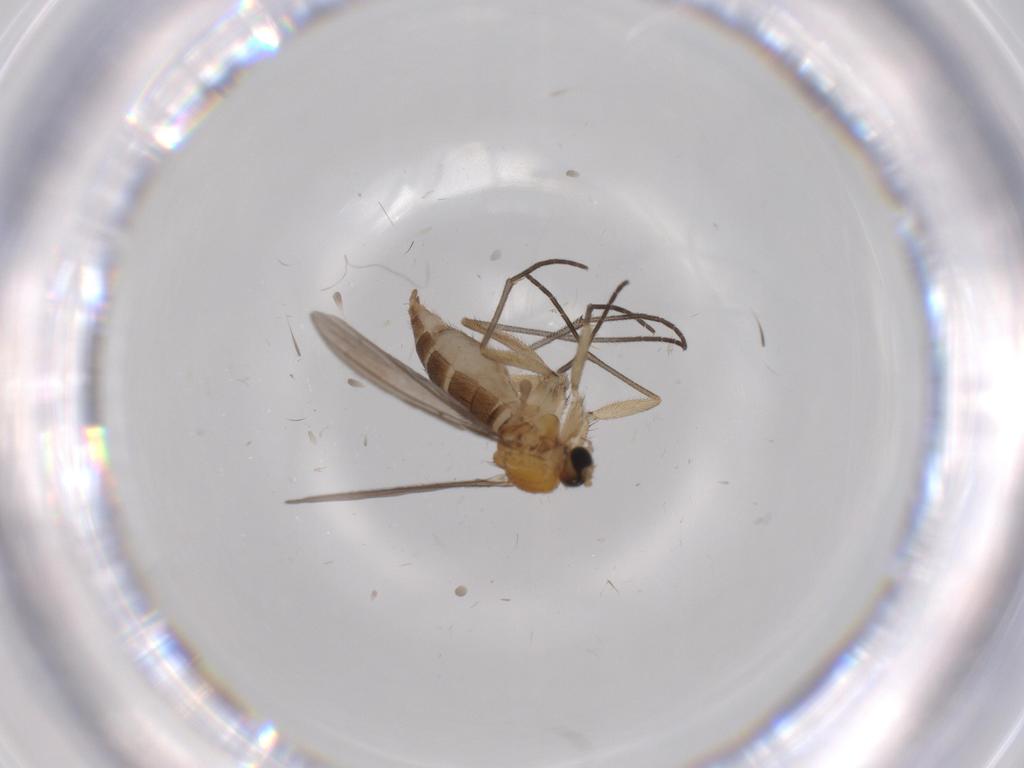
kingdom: Animalia
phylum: Arthropoda
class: Insecta
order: Diptera
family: Sciaridae
